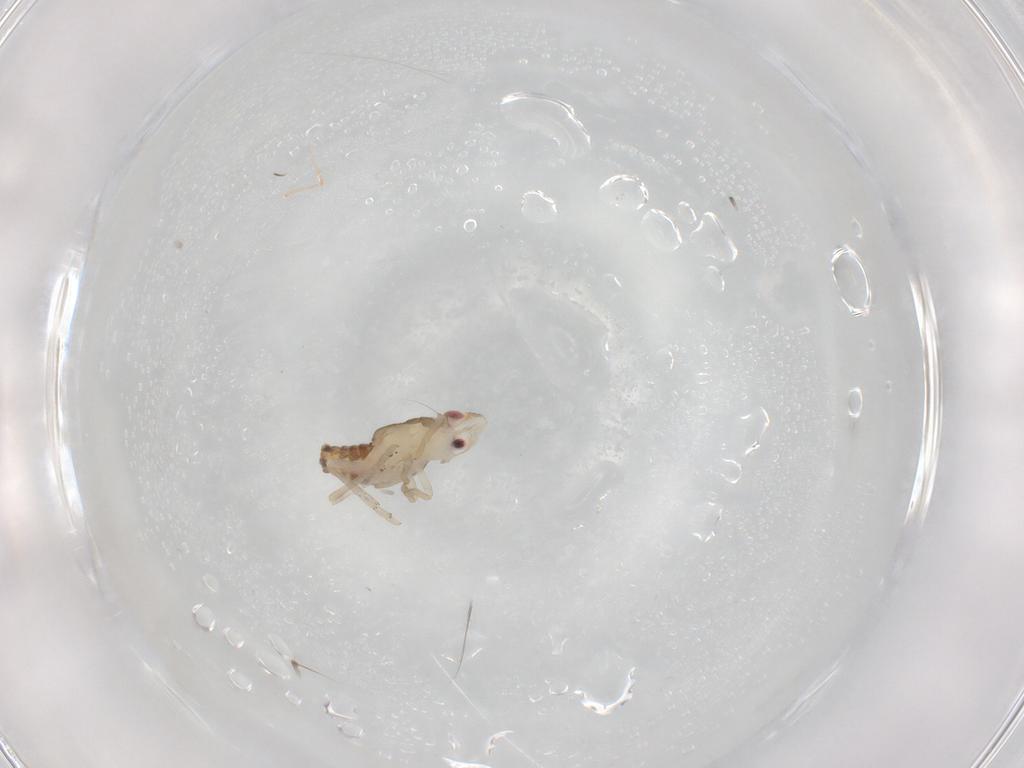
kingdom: Animalia
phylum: Arthropoda
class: Insecta
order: Hemiptera
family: Tropiduchidae
